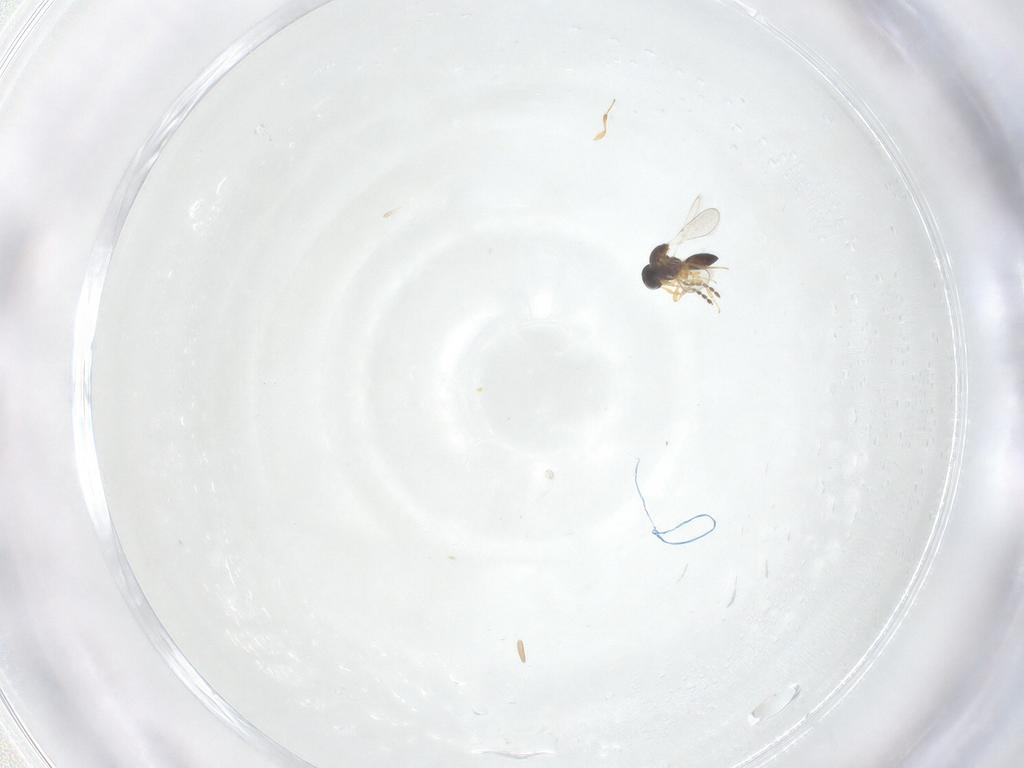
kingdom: Animalia
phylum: Arthropoda
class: Insecta
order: Hymenoptera
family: Platygastridae
